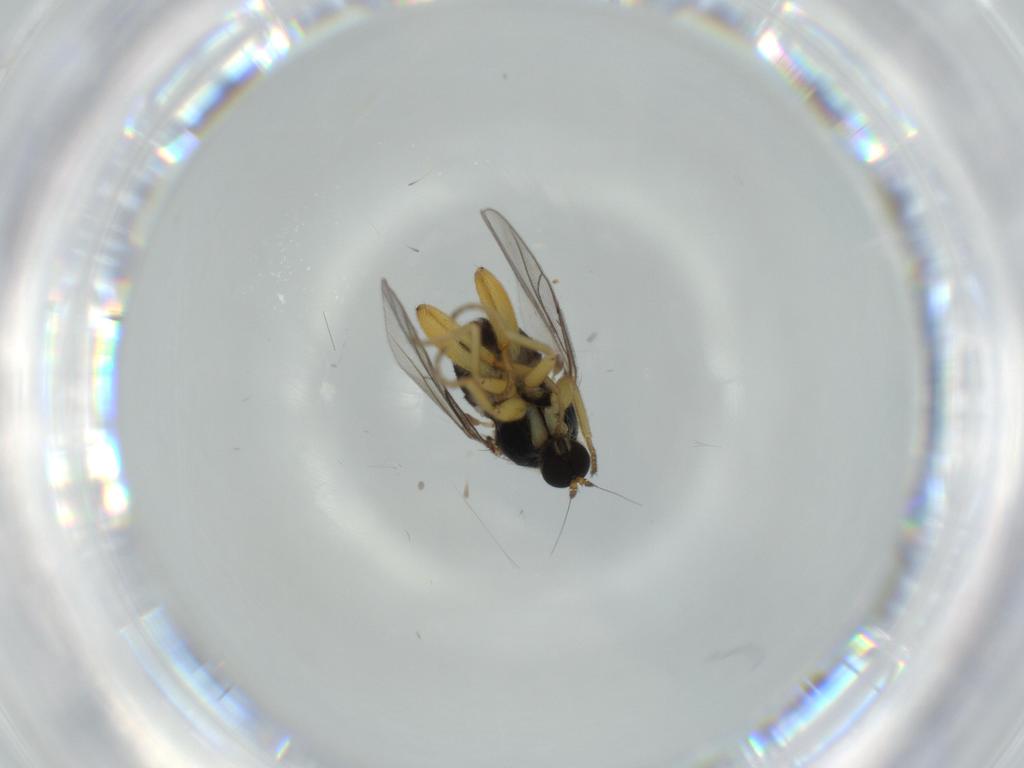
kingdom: Animalia
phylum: Arthropoda
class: Insecta
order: Diptera
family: Hybotidae
